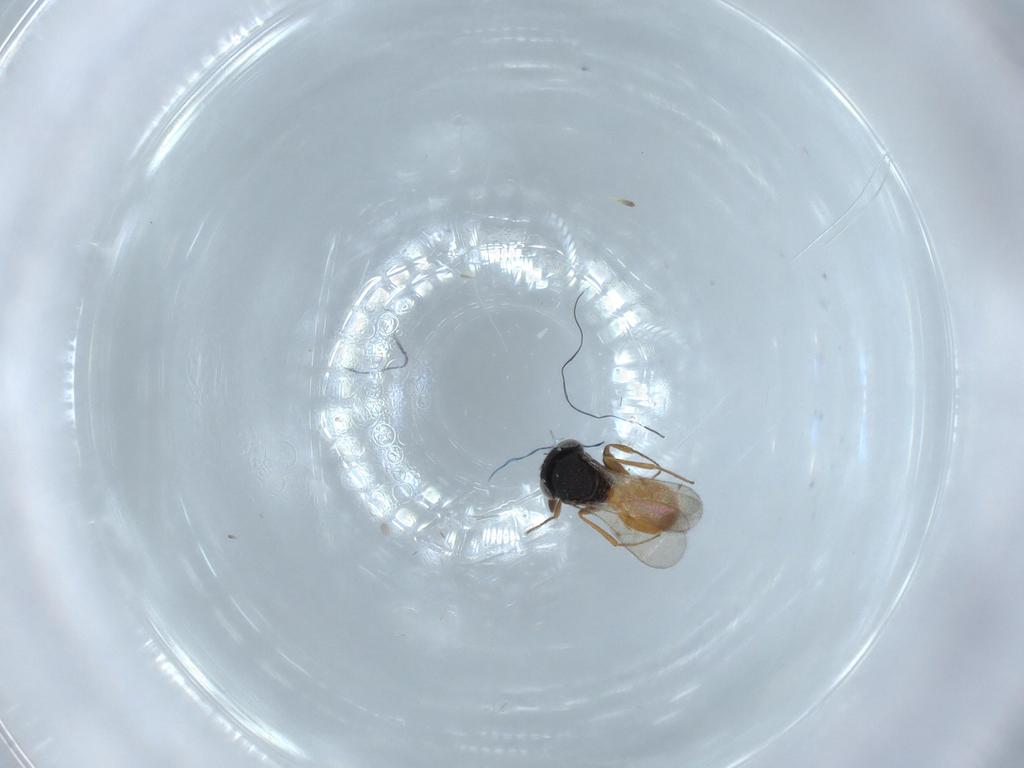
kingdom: Animalia
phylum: Arthropoda
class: Insecta
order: Hymenoptera
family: Scelionidae
